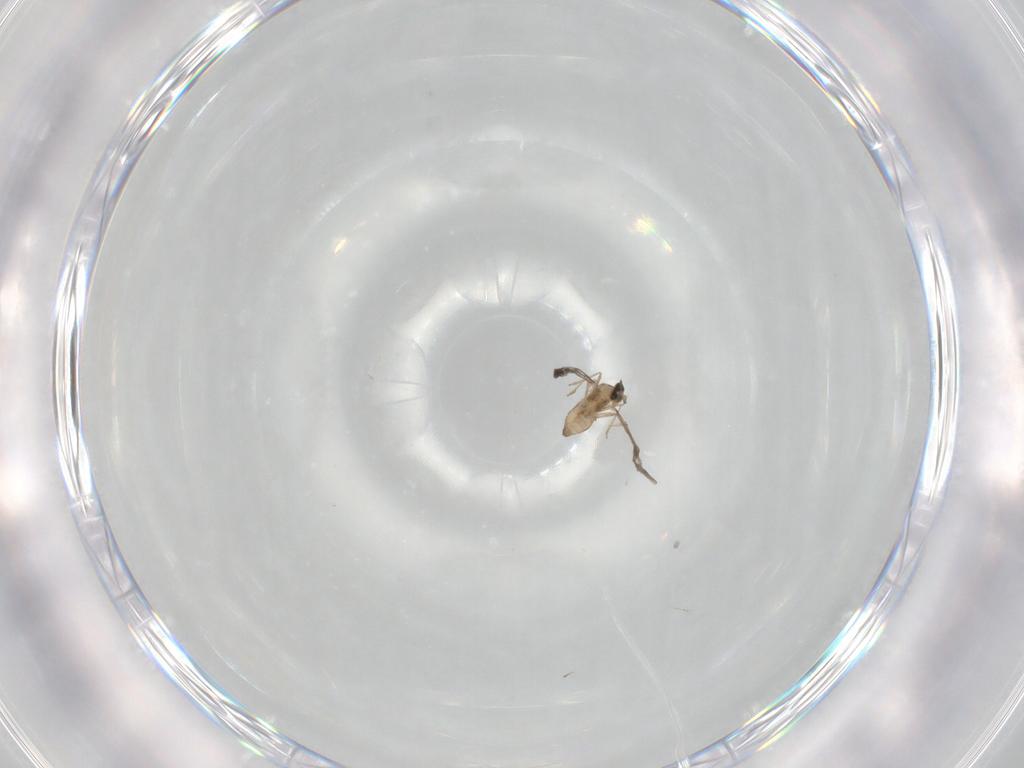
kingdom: Animalia
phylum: Arthropoda
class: Insecta
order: Diptera
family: Cecidomyiidae
